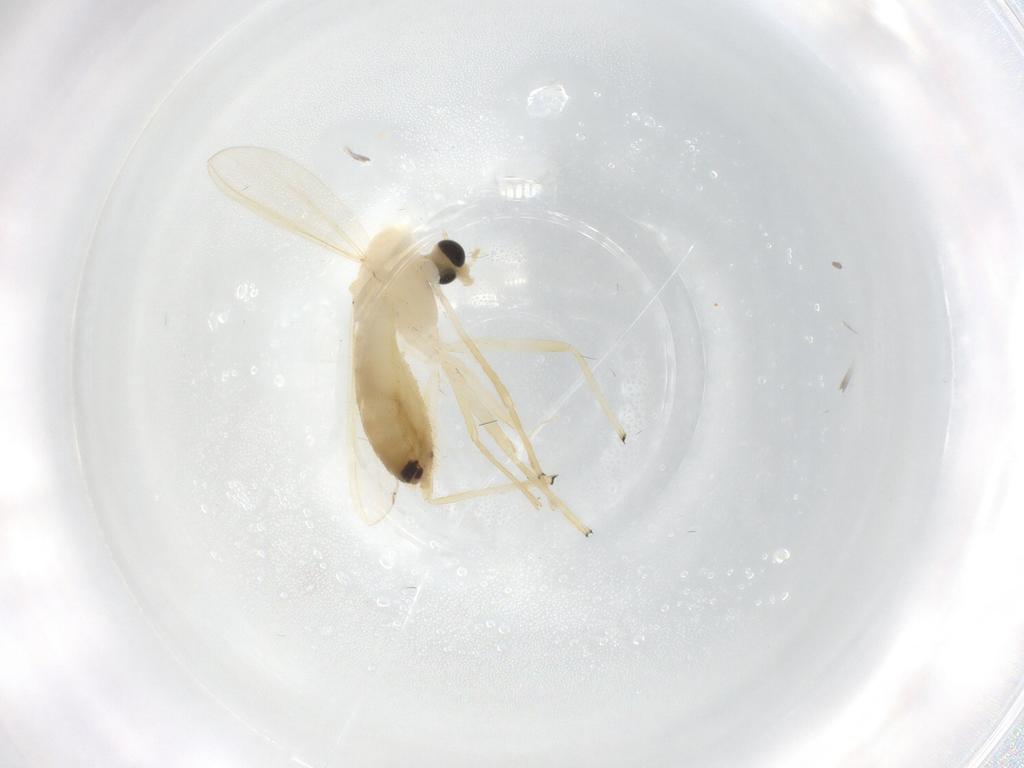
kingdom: Animalia
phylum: Arthropoda
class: Insecta
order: Diptera
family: Chironomidae
